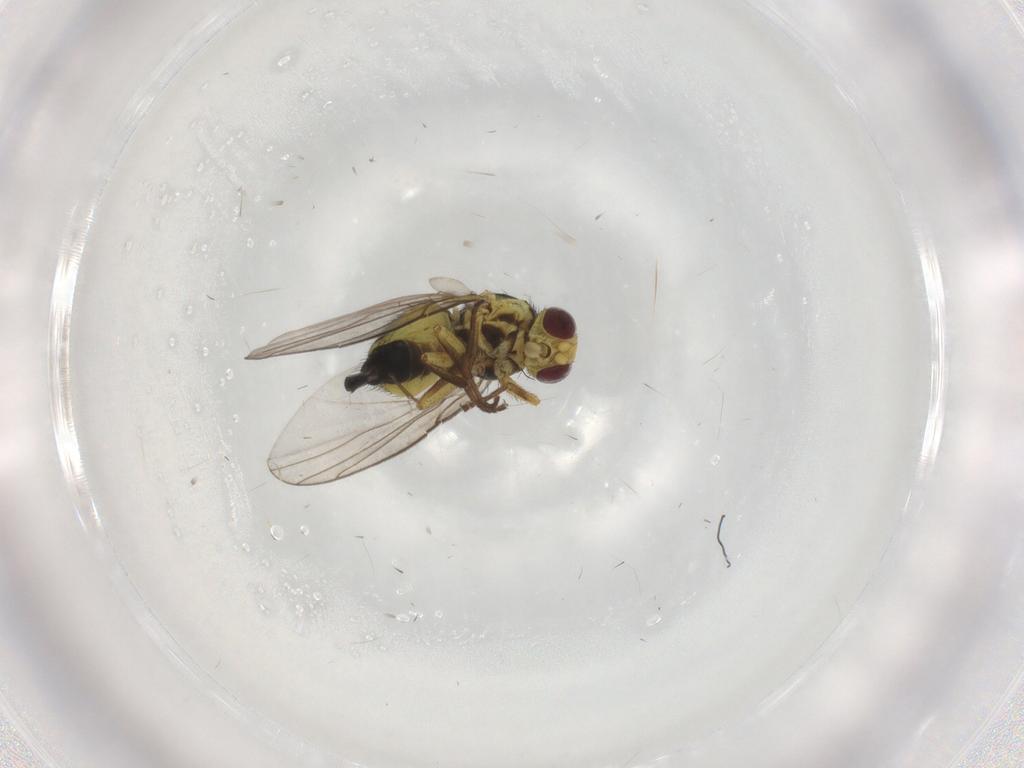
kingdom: Animalia
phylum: Arthropoda
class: Insecta
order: Diptera
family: Agromyzidae
